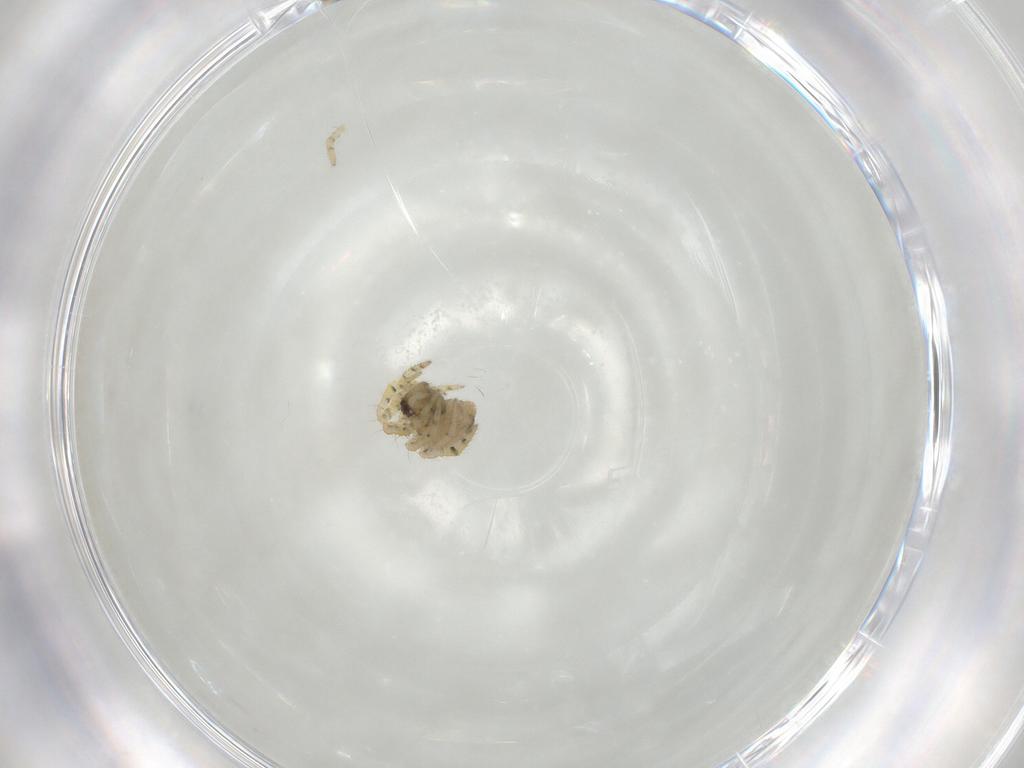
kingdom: Animalia
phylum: Arthropoda
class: Arachnida
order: Araneae
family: Theridiidae
